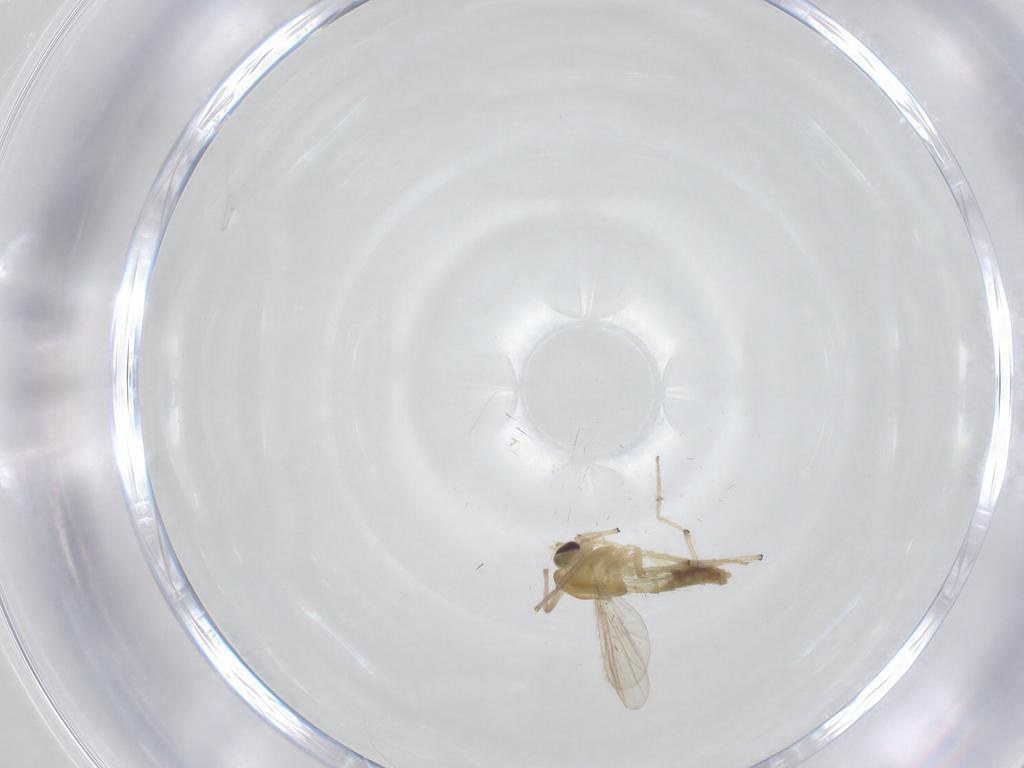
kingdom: Animalia
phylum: Arthropoda
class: Insecta
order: Diptera
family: Chironomidae
